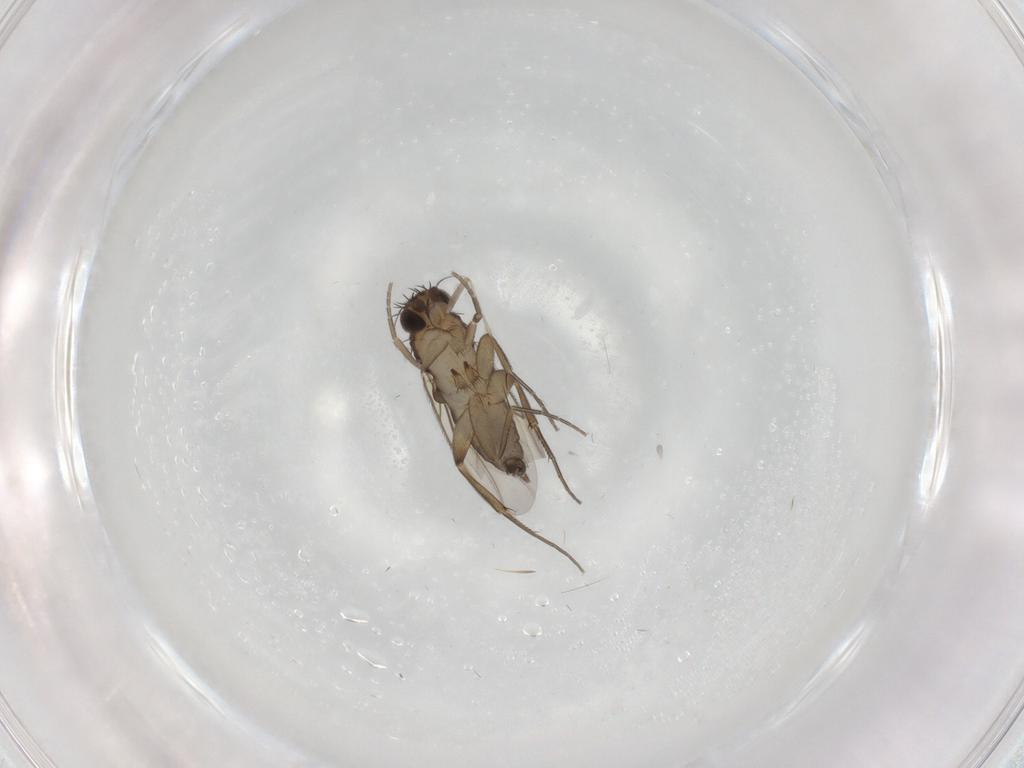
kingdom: Animalia
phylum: Arthropoda
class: Insecta
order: Diptera
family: Phoridae
